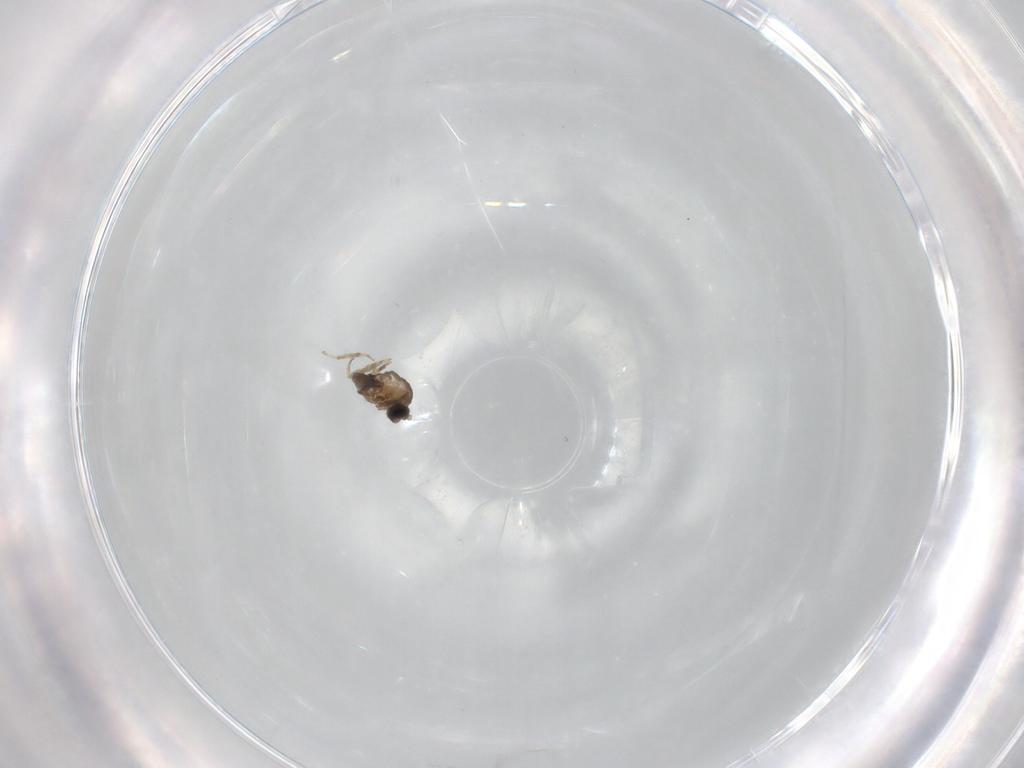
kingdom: Animalia
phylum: Arthropoda
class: Insecta
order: Diptera
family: Cecidomyiidae
